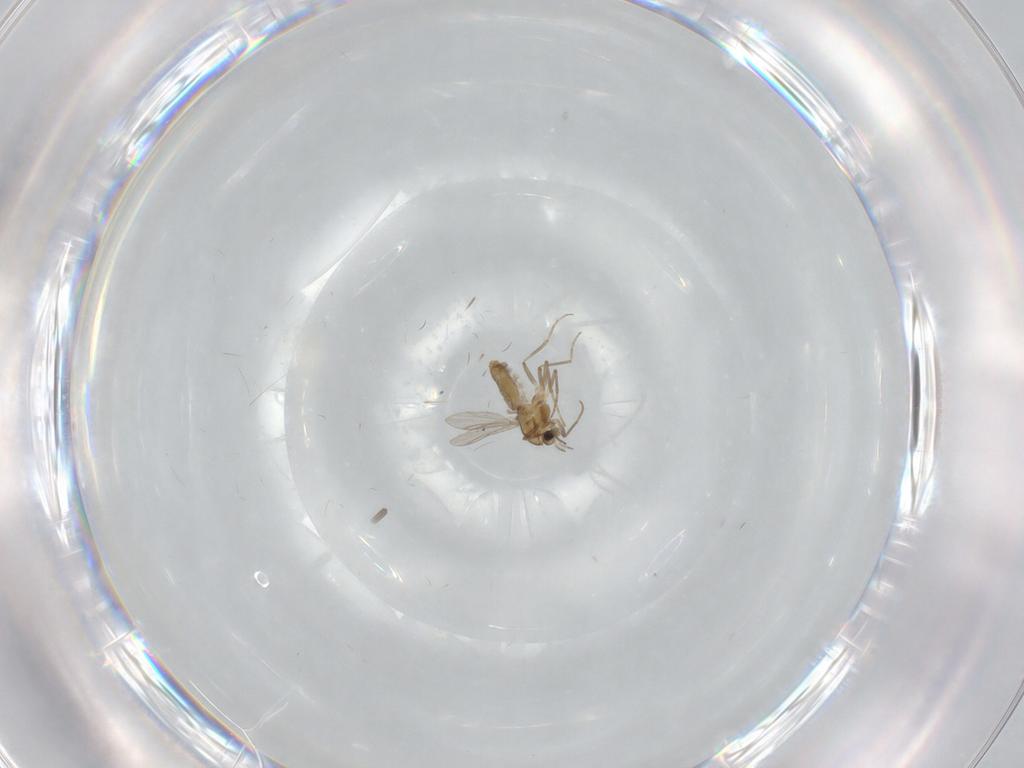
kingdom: Animalia
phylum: Arthropoda
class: Insecta
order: Diptera
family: Chironomidae
